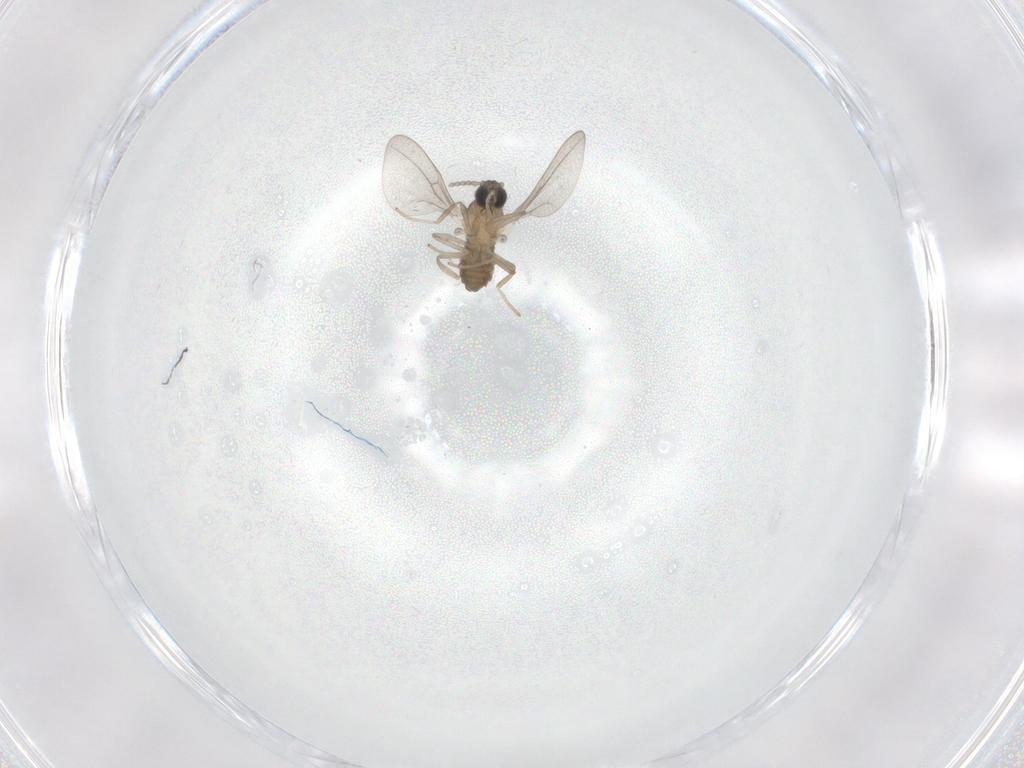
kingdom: Animalia
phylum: Arthropoda
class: Insecta
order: Diptera
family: Cecidomyiidae
